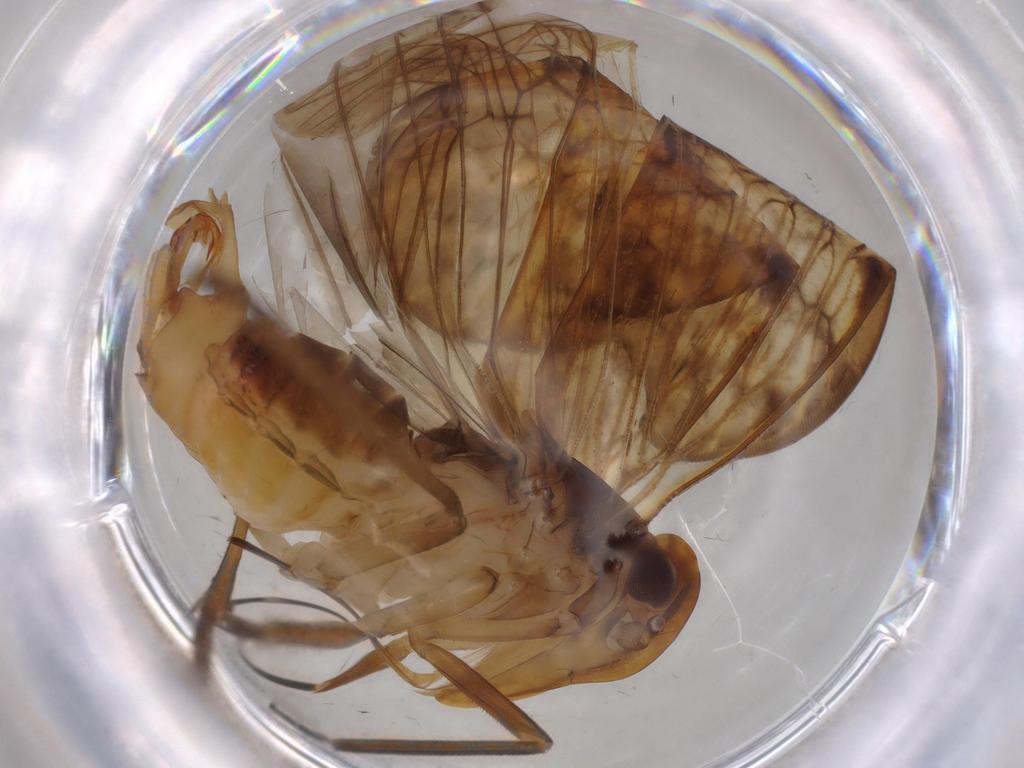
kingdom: Animalia
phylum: Arthropoda
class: Insecta
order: Hemiptera
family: Cixiidae
